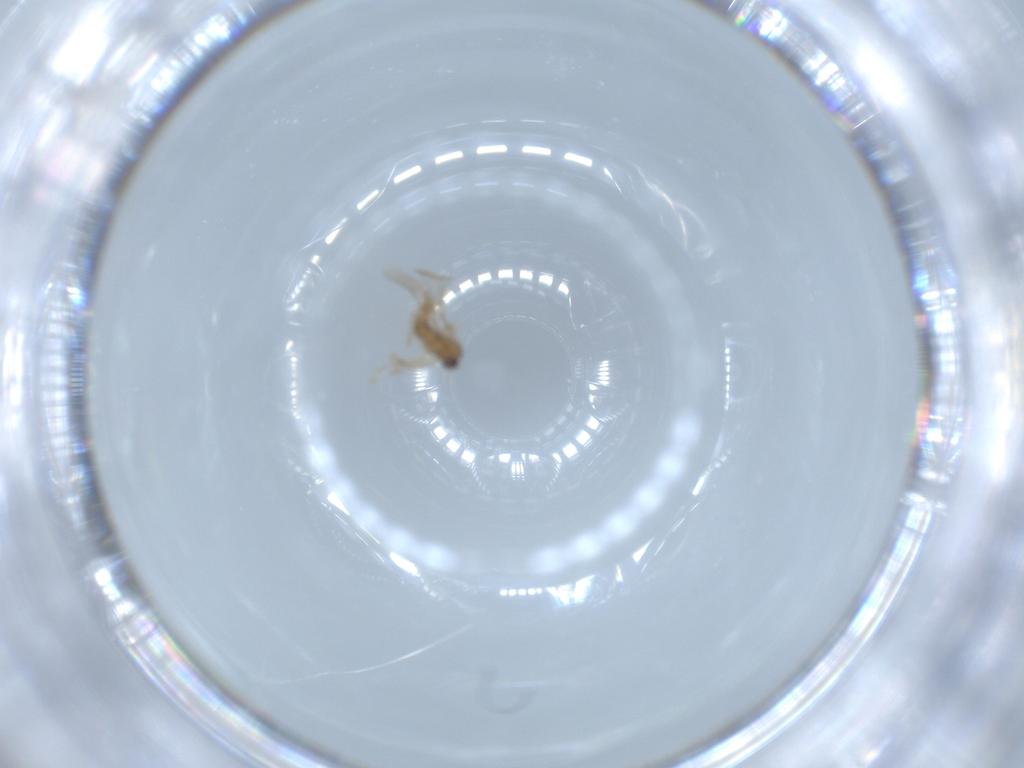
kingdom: Animalia
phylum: Arthropoda
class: Insecta
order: Diptera
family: Cecidomyiidae
